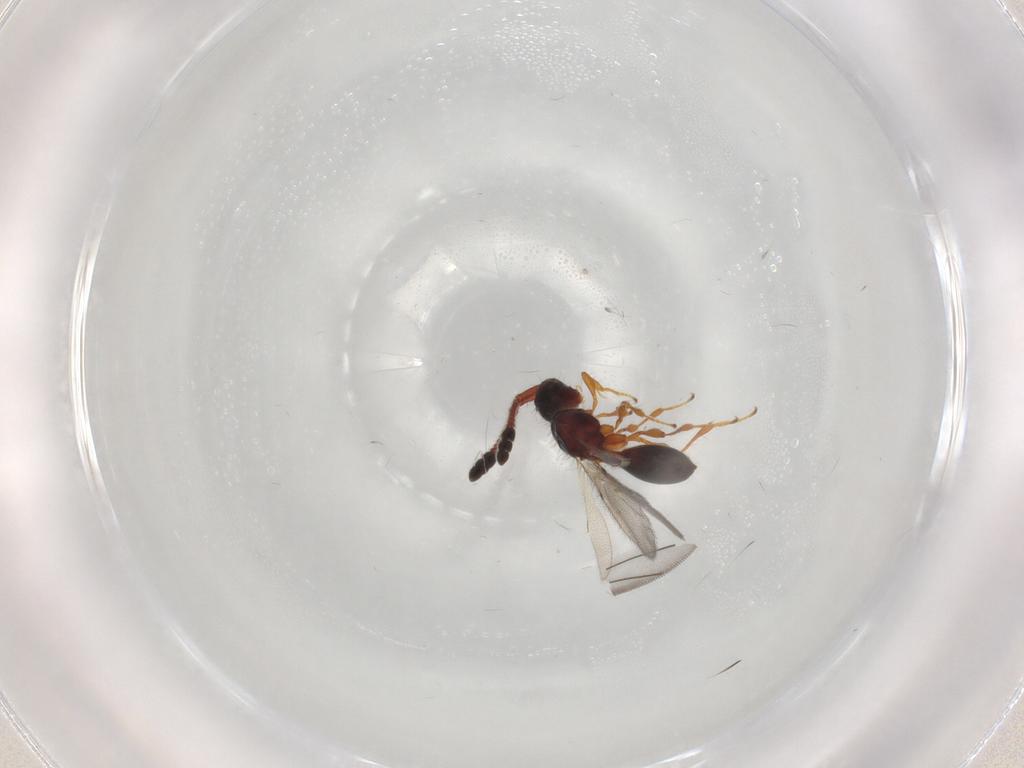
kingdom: Animalia
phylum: Arthropoda
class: Insecta
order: Hymenoptera
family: Diapriidae
